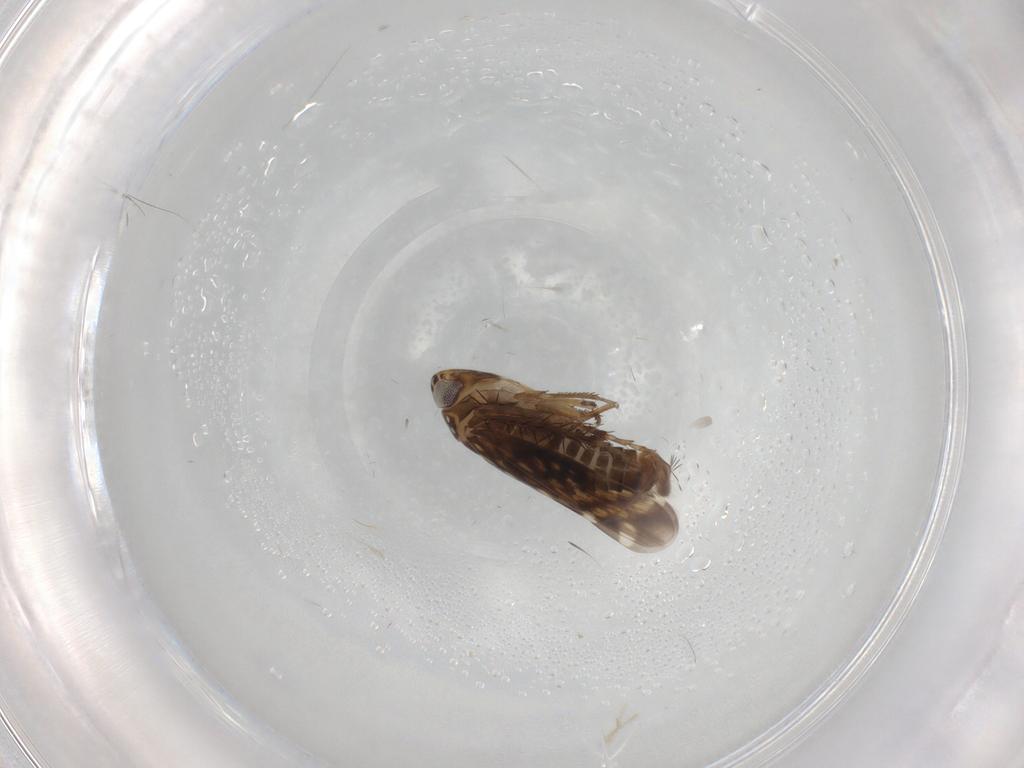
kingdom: Animalia
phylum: Arthropoda
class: Insecta
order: Hemiptera
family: Cicadellidae
